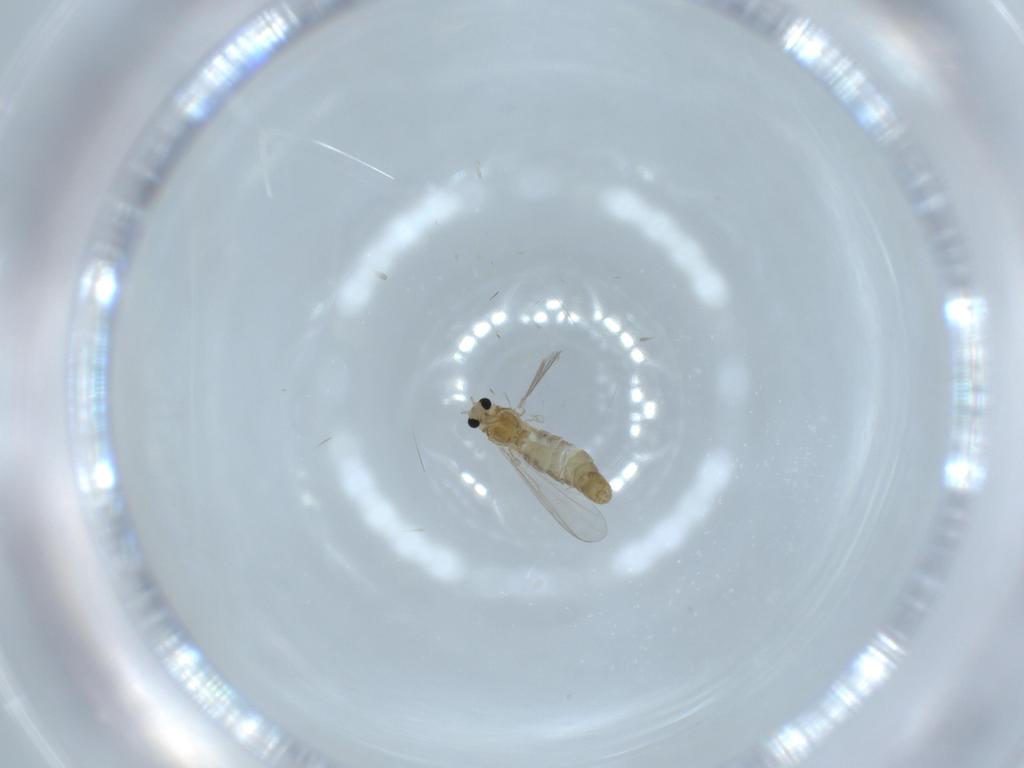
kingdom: Animalia
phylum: Arthropoda
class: Insecta
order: Diptera
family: Chironomidae
